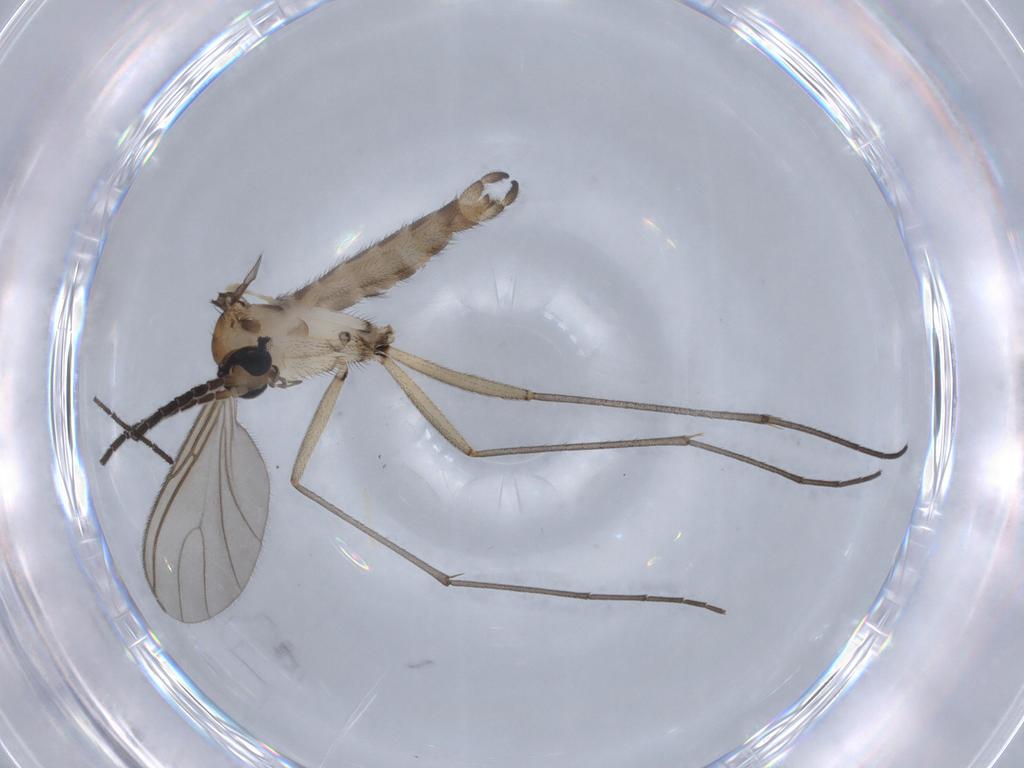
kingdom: Animalia
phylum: Arthropoda
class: Insecta
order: Diptera
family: Sciaridae
